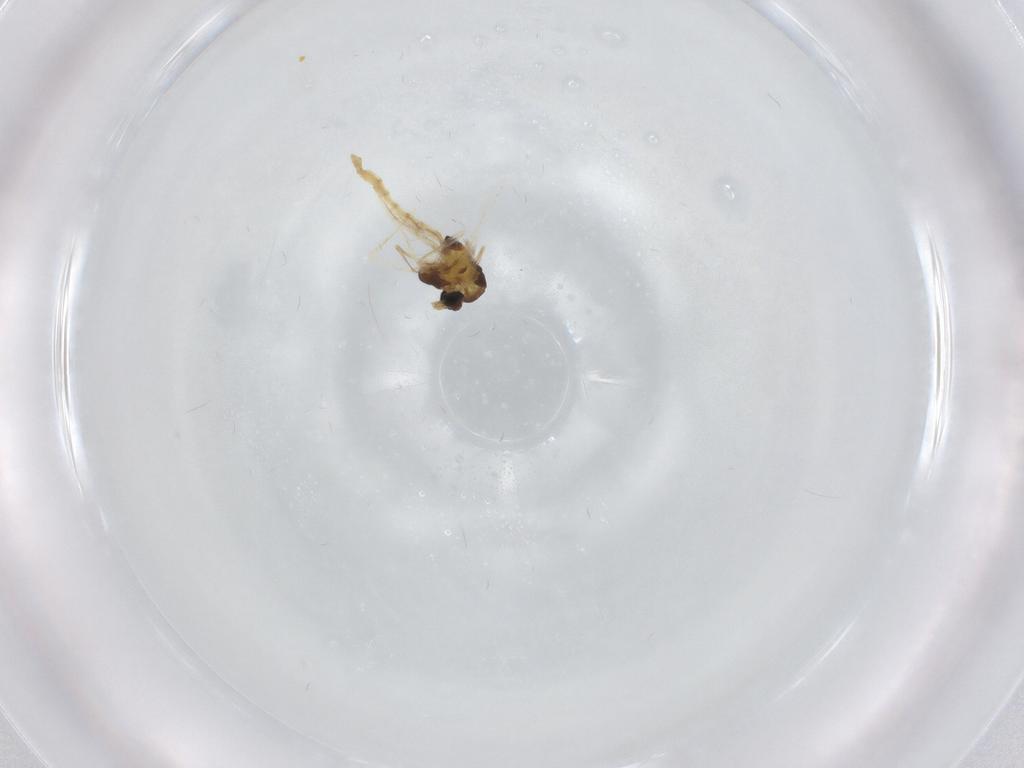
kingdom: Animalia
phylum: Arthropoda
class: Insecta
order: Diptera
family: Chironomidae
